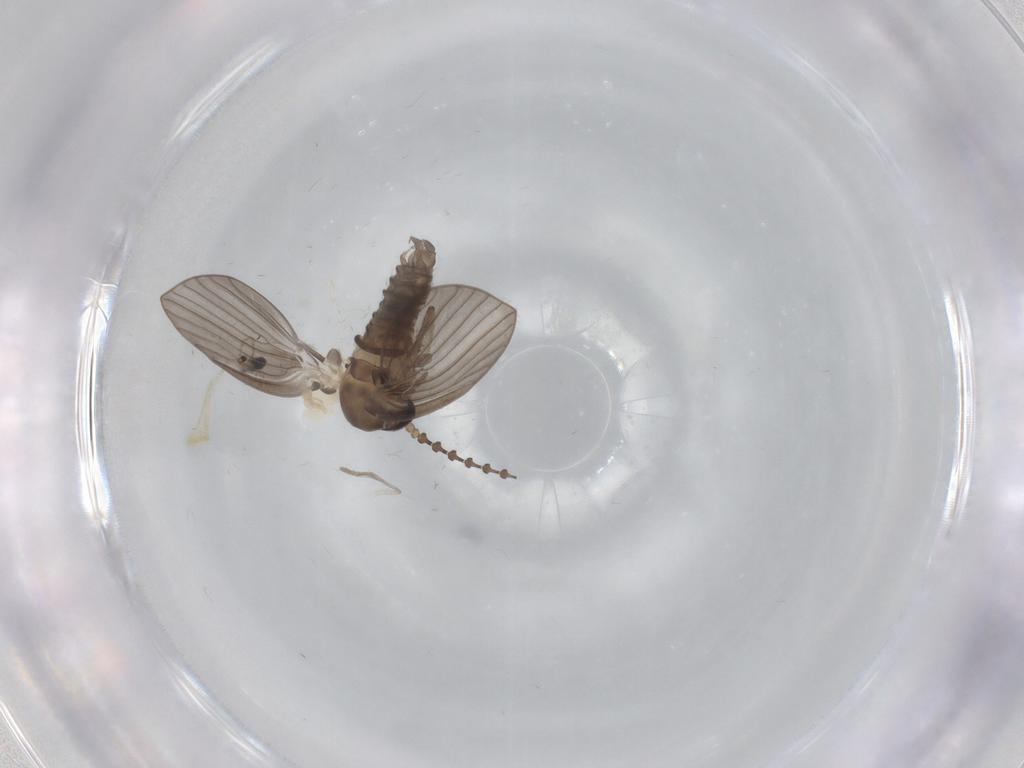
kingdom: Animalia
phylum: Arthropoda
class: Insecta
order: Diptera
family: Psychodidae
